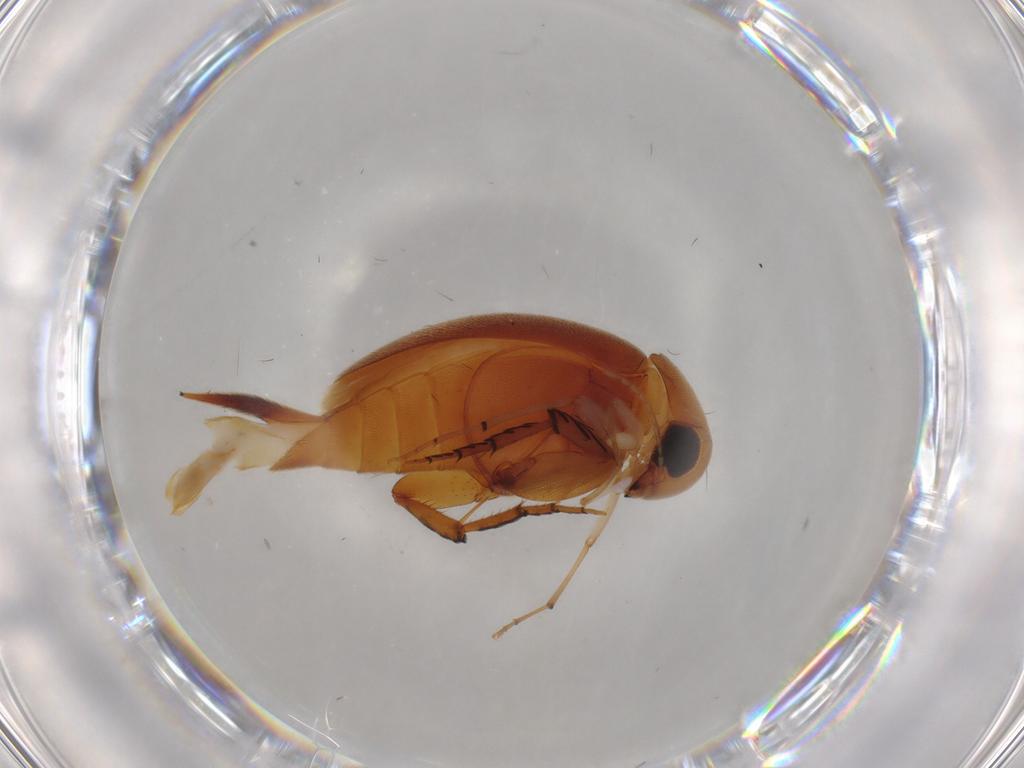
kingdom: Animalia
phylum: Arthropoda
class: Insecta
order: Coleoptera
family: Mordellidae
